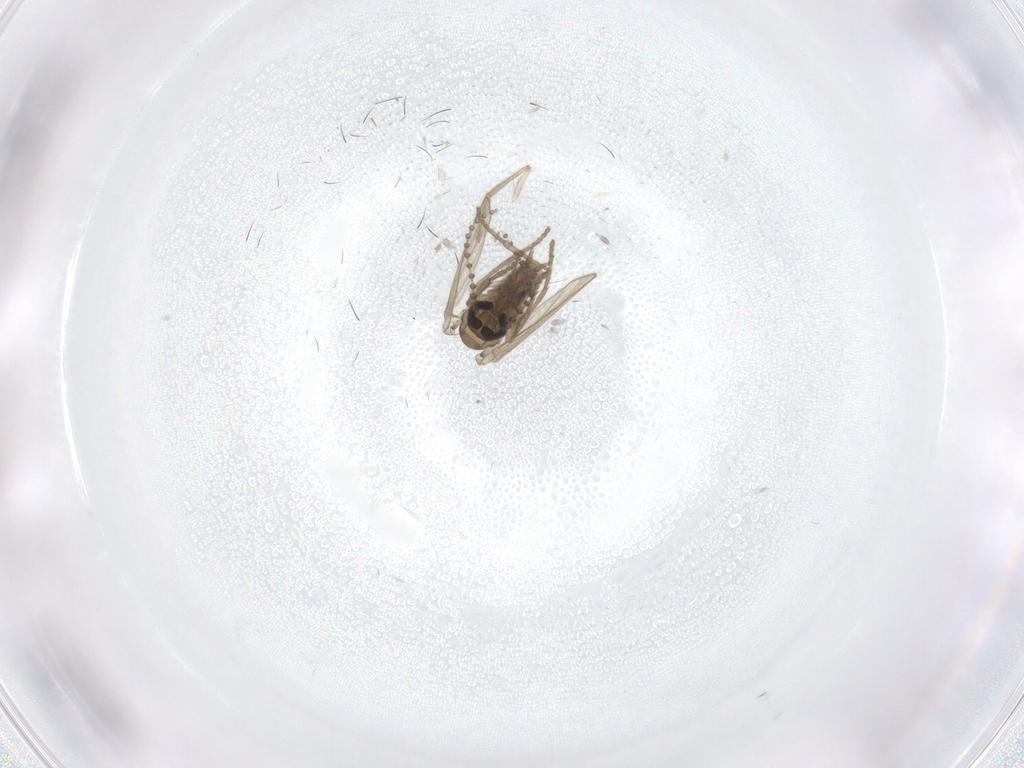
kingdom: Animalia
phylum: Arthropoda
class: Insecta
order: Diptera
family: Psychodidae
